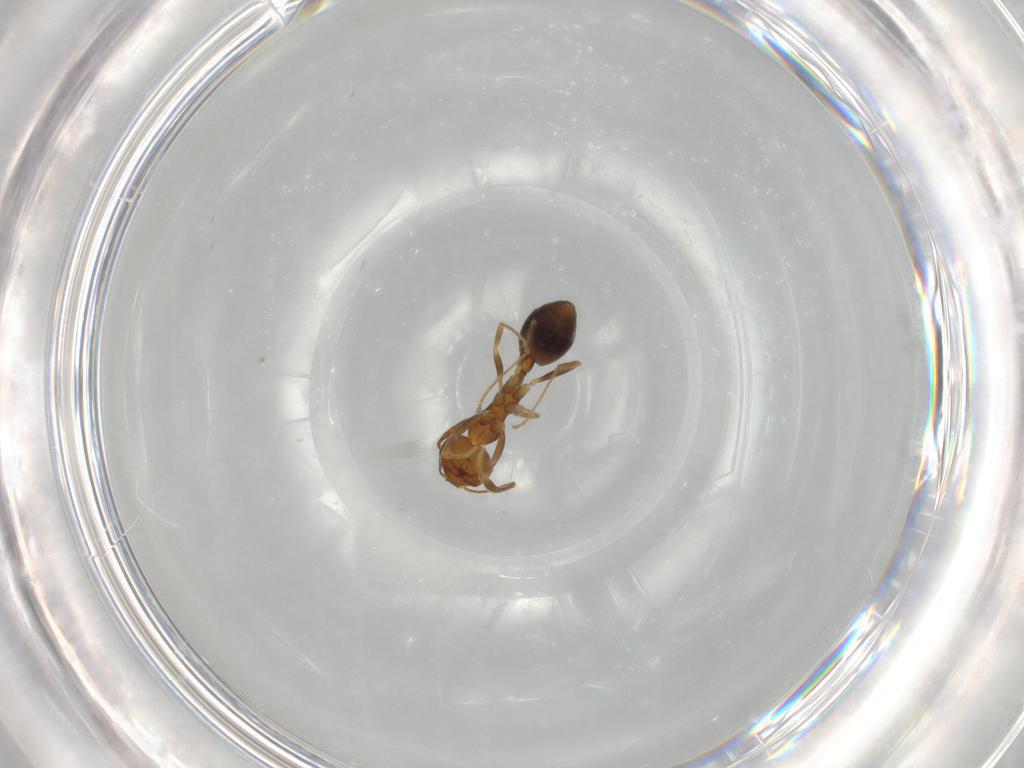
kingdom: Animalia
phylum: Arthropoda
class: Insecta
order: Hymenoptera
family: Formicidae
